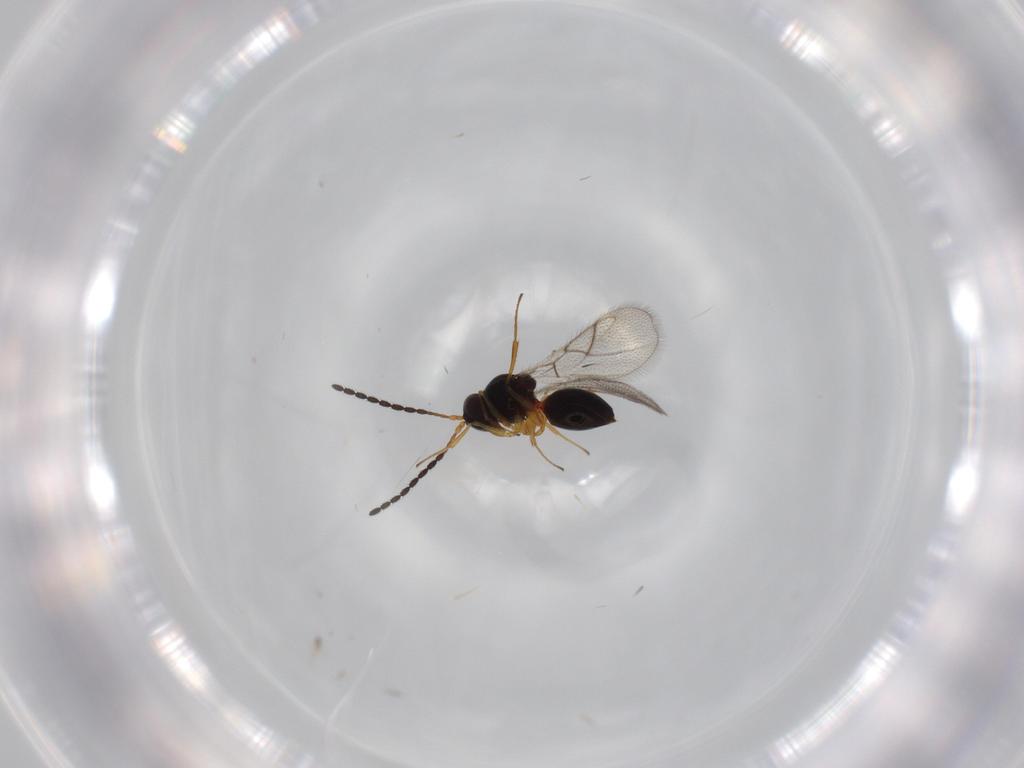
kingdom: Animalia
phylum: Arthropoda
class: Insecta
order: Hymenoptera
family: Figitidae
